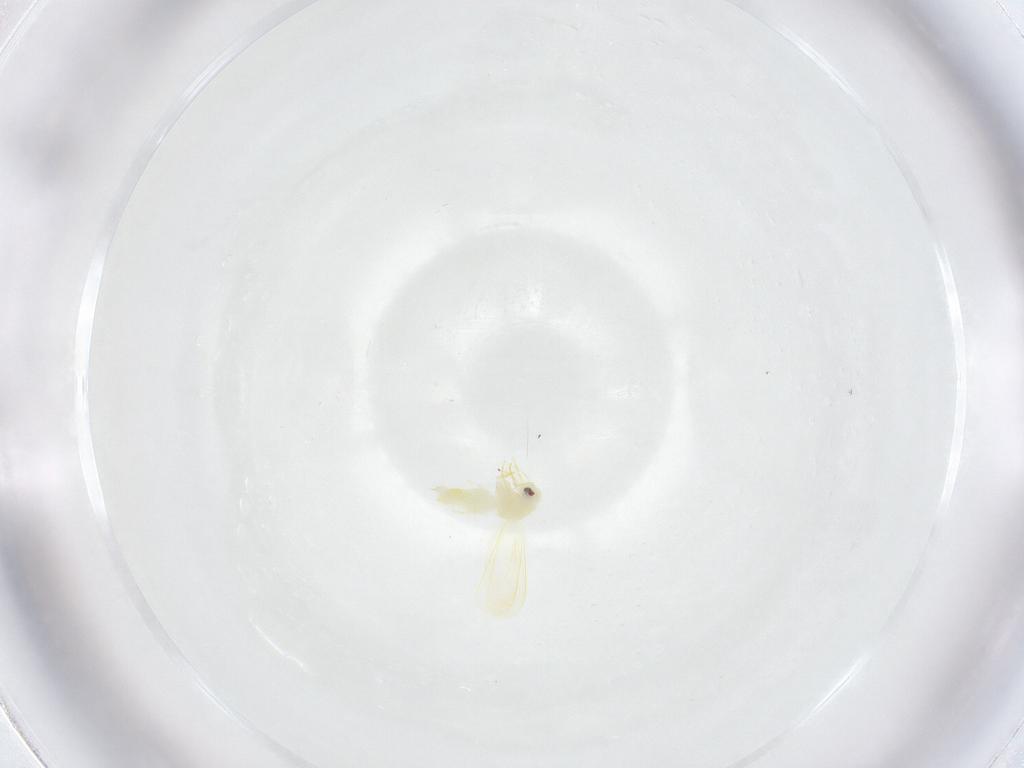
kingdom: Animalia
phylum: Arthropoda
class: Insecta
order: Hemiptera
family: Aleyrodidae
